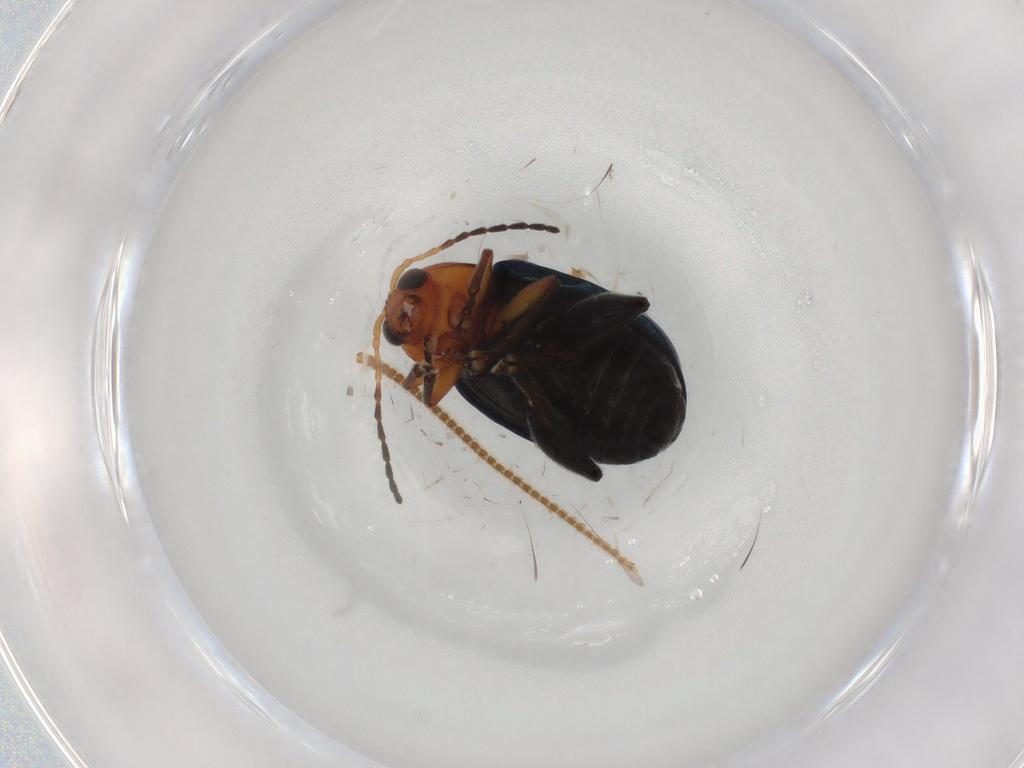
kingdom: Animalia
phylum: Arthropoda
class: Insecta
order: Coleoptera
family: Chrysomelidae
